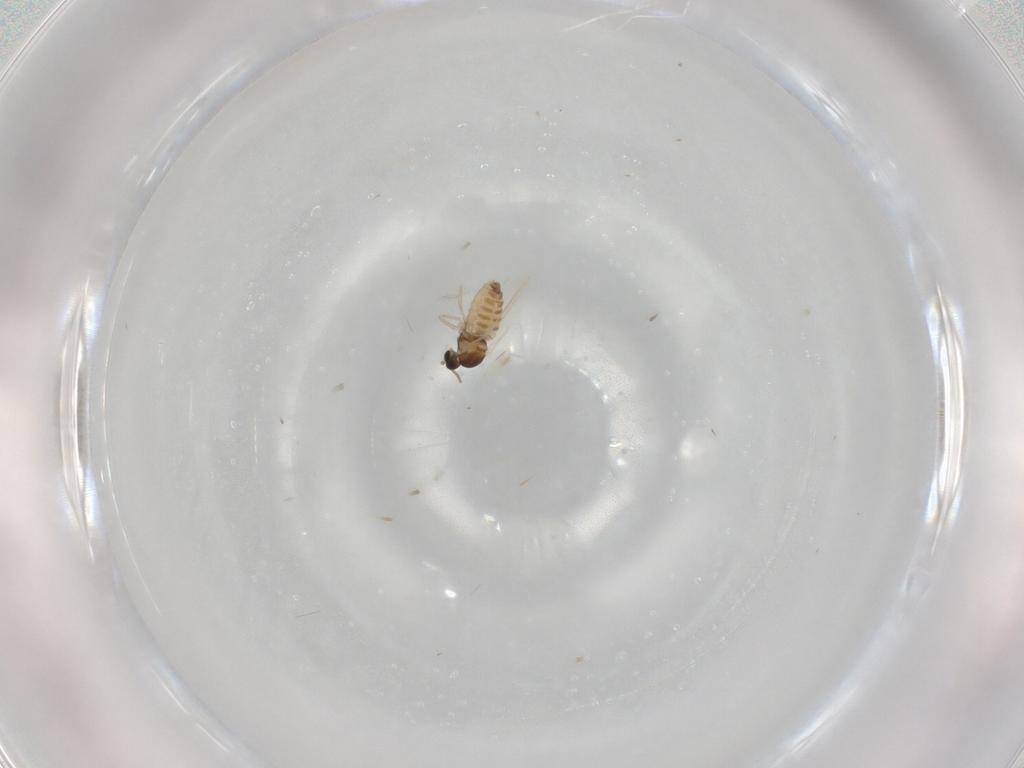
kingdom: Animalia
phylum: Arthropoda
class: Insecta
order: Diptera
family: Cecidomyiidae
